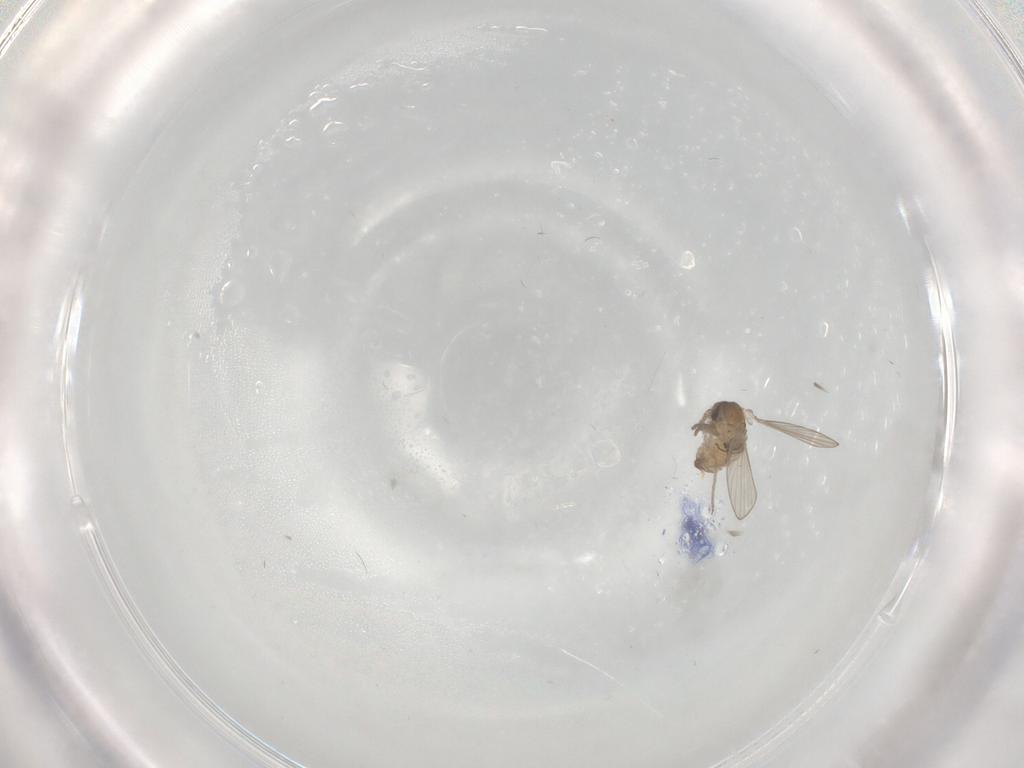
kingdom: Animalia
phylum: Arthropoda
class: Insecta
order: Diptera
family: Psychodidae
